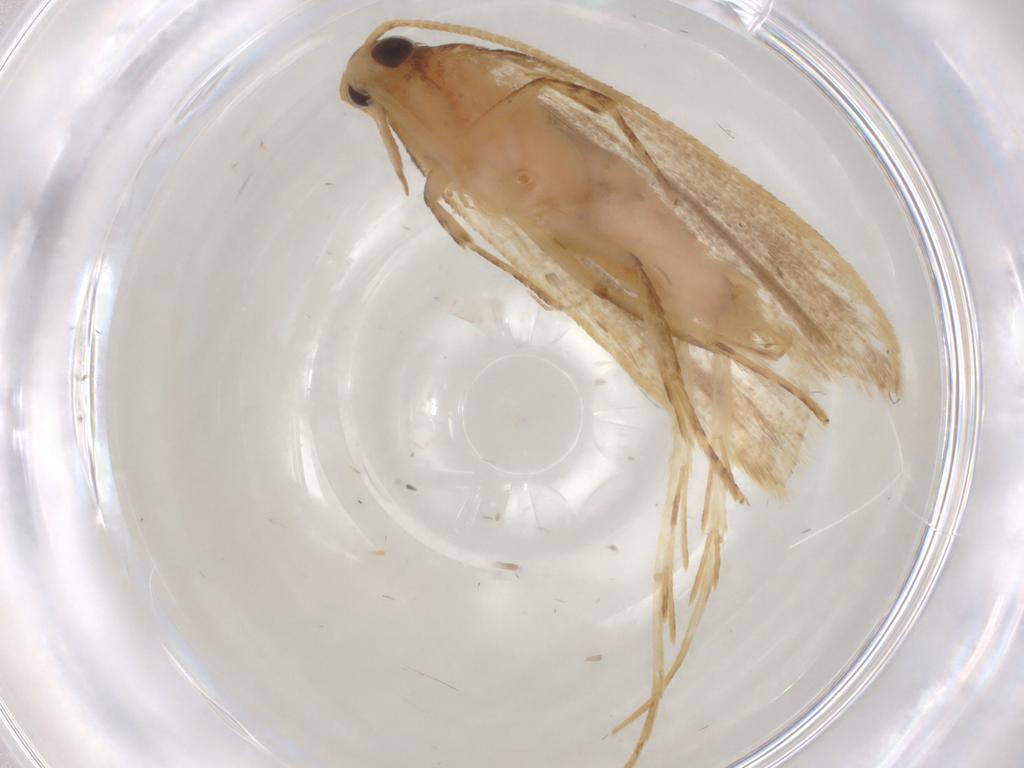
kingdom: Animalia
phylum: Arthropoda
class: Insecta
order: Lepidoptera
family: Lecithoceridae
